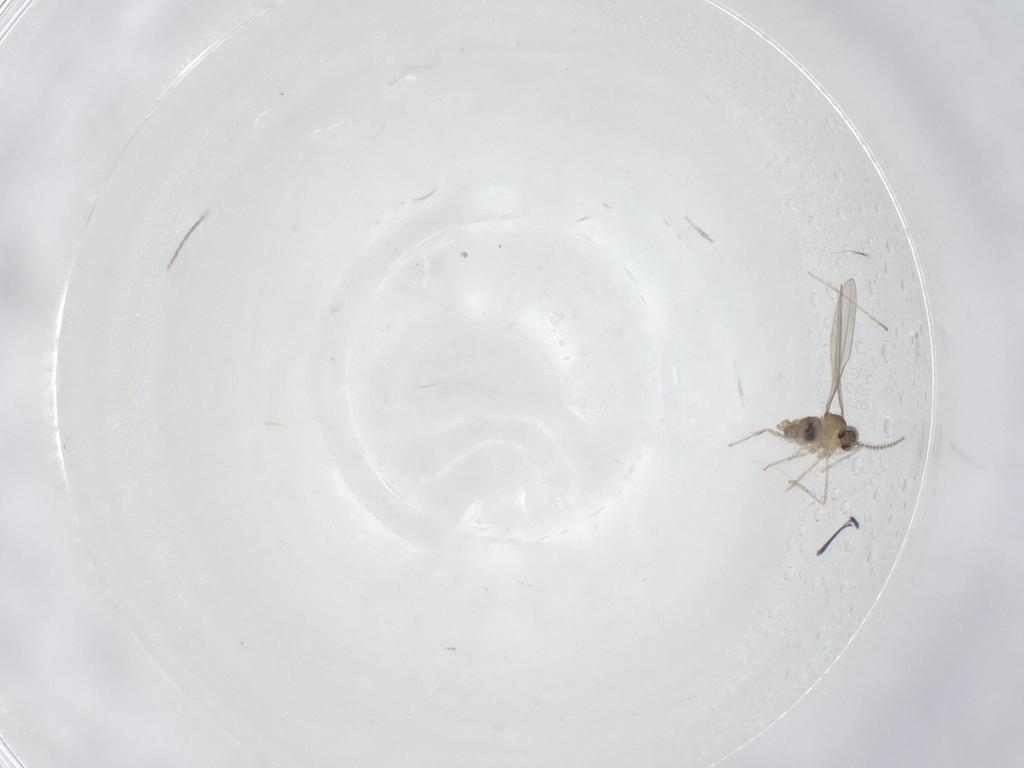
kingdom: Animalia
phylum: Arthropoda
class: Insecta
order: Diptera
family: Cecidomyiidae
